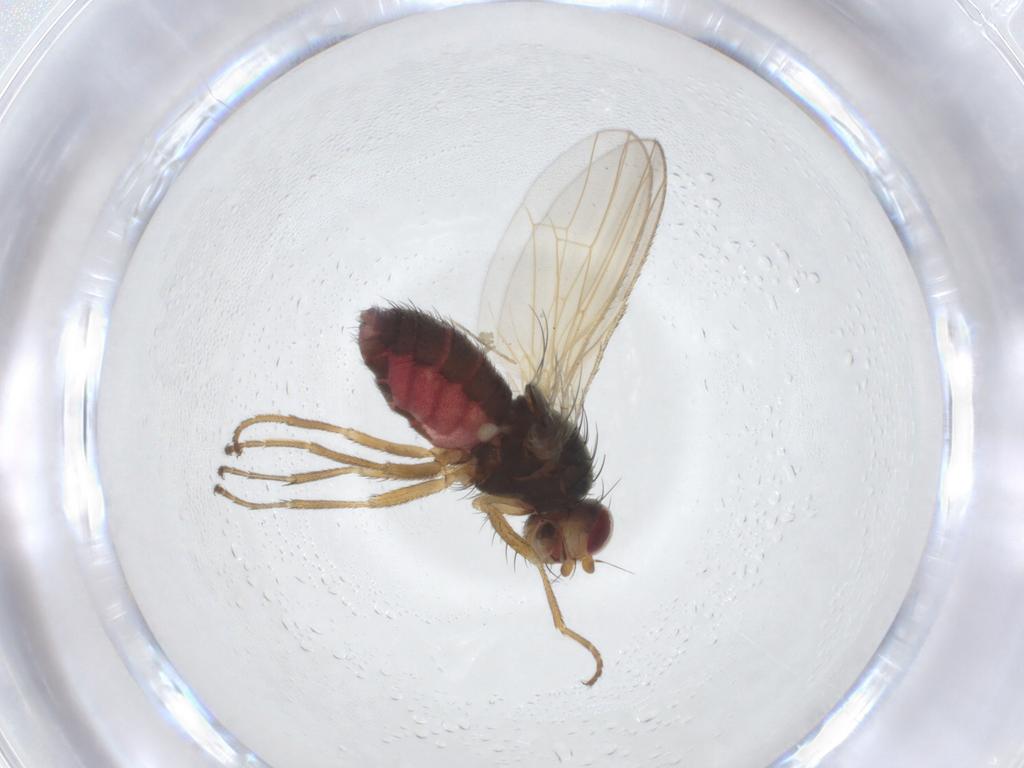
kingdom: Animalia
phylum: Arthropoda
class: Insecta
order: Diptera
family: Heleomyzidae
